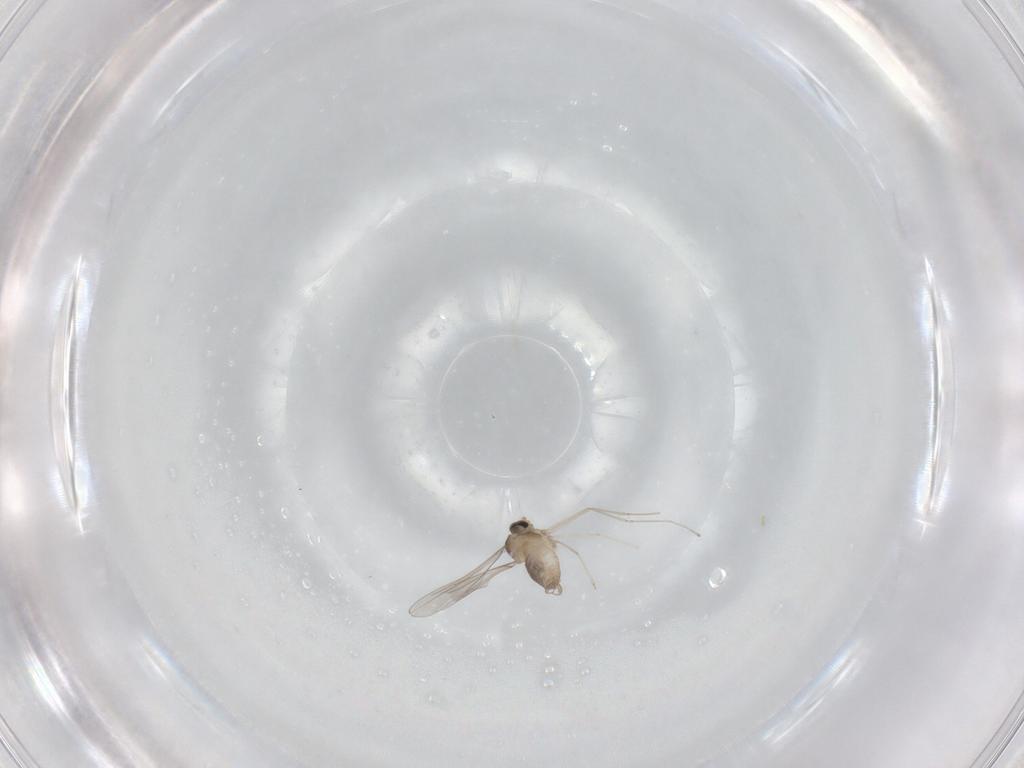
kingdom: Animalia
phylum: Arthropoda
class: Insecta
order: Diptera
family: Cecidomyiidae
